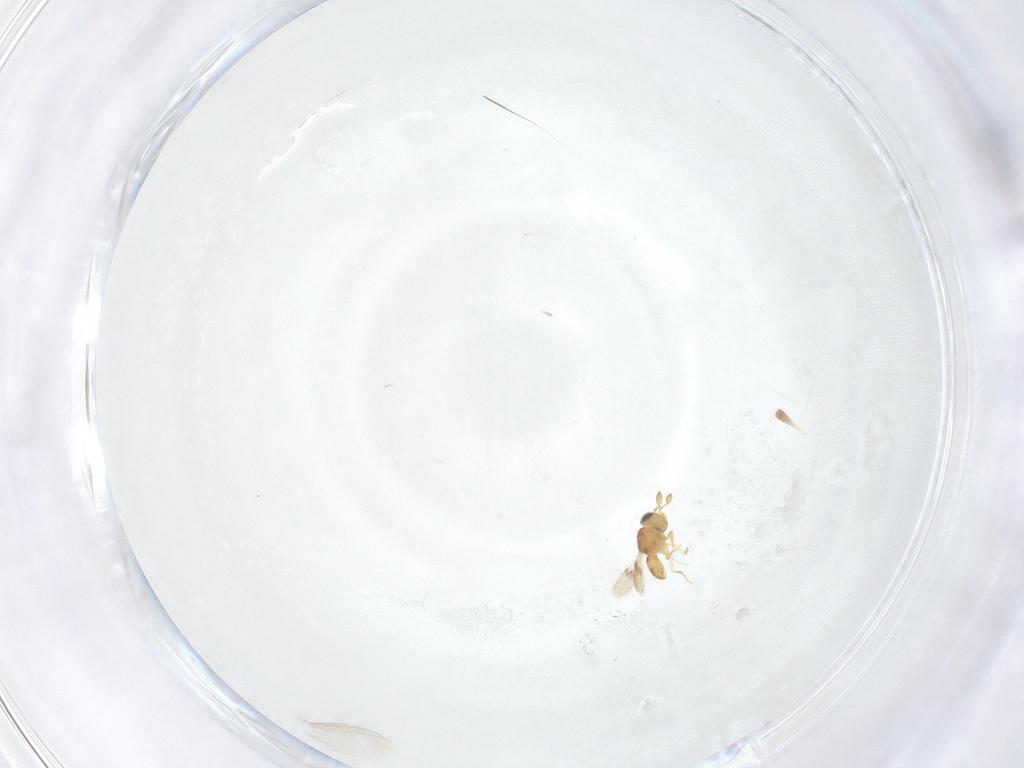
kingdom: Animalia
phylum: Arthropoda
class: Insecta
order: Hymenoptera
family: Scelionidae
